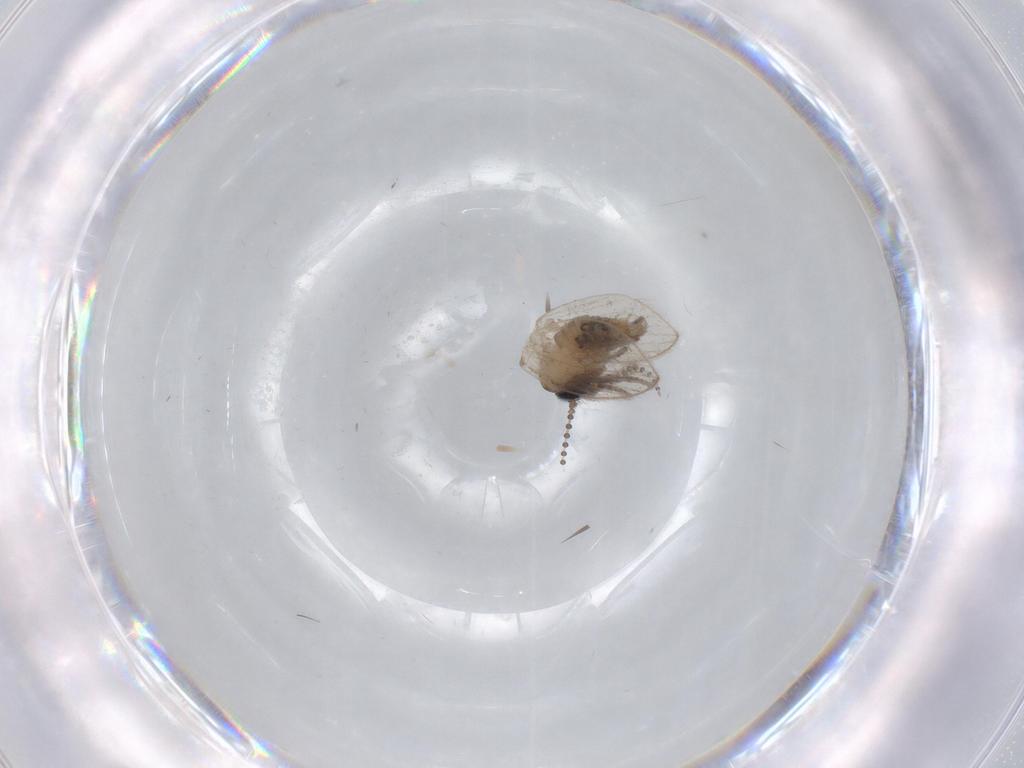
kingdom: Animalia
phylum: Arthropoda
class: Insecta
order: Diptera
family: Psychodidae
